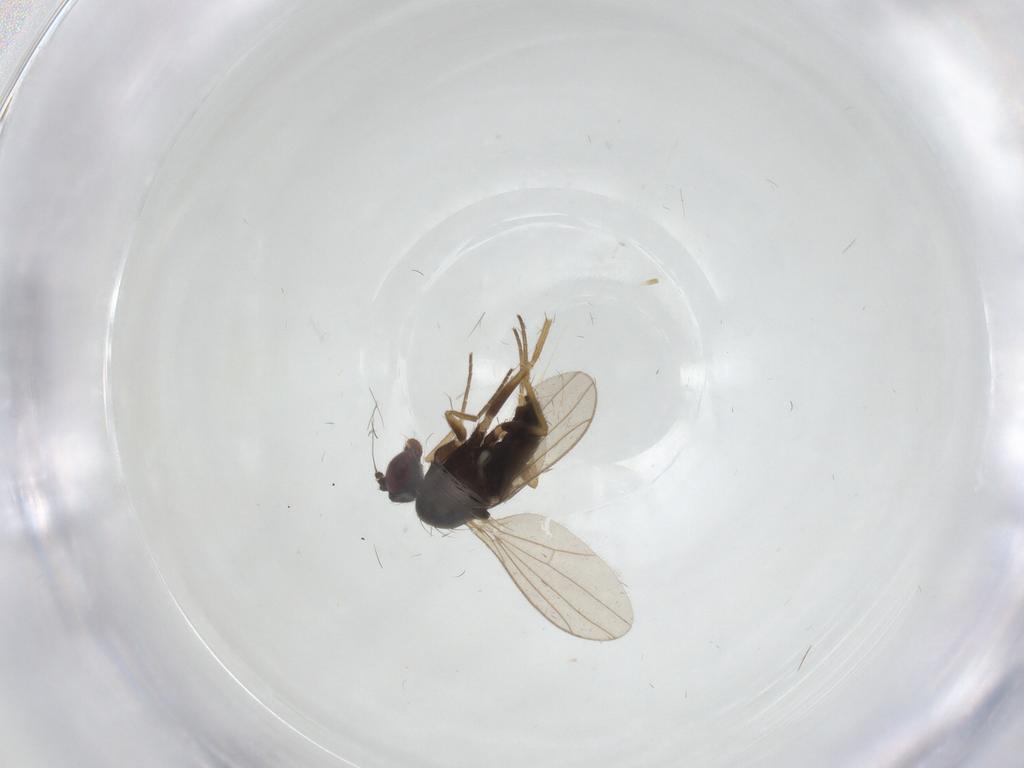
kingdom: Animalia
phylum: Arthropoda
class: Insecta
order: Diptera
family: Dolichopodidae
